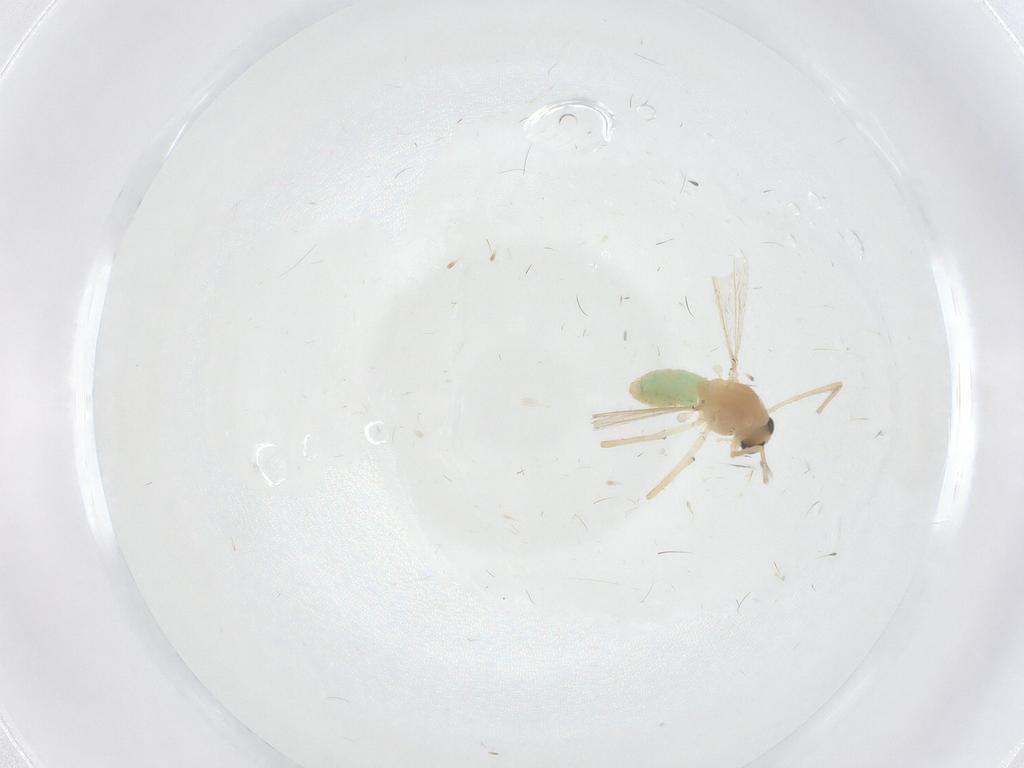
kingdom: Animalia
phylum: Arthropoda
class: Insecta
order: Diptera
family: Chironomidae
